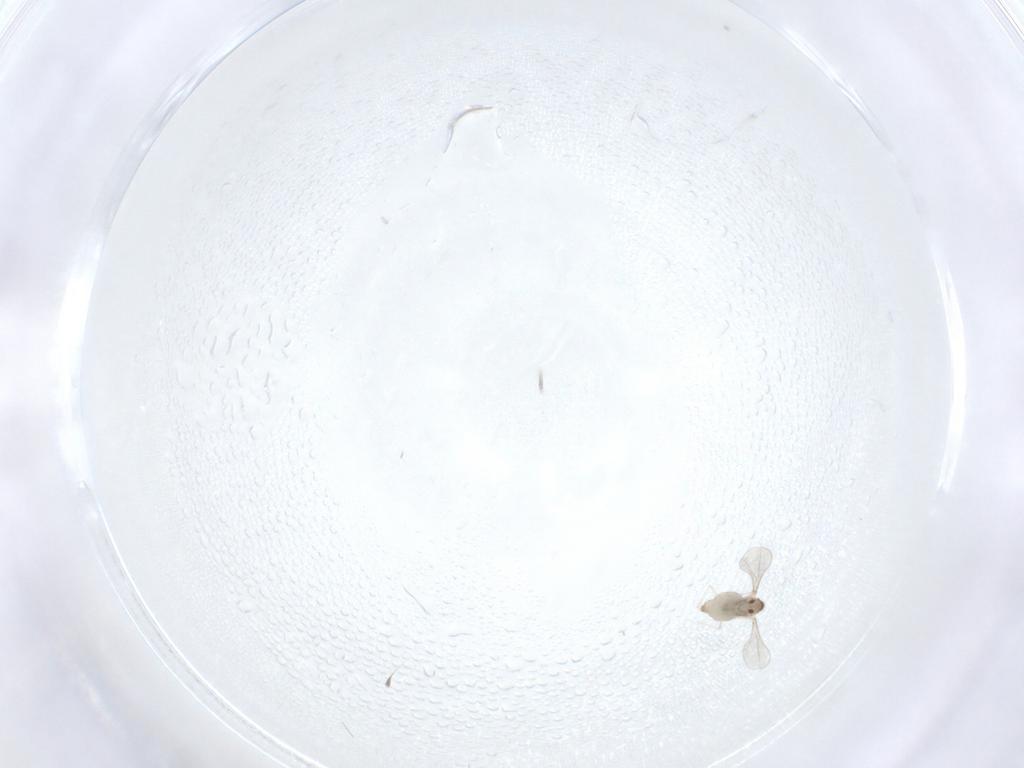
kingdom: Animalia
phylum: Arthropoda
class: Insecta
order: Diptera
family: Cecidomyiidae
